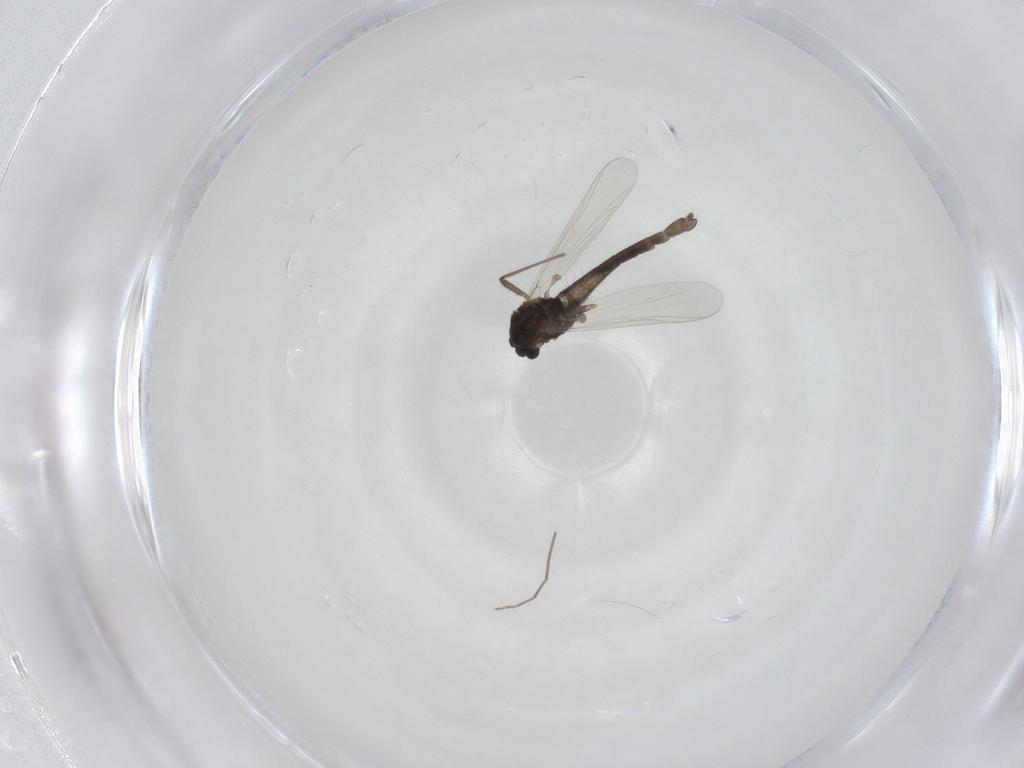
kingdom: Animalia
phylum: Arthropoda
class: Insecta
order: Diptera
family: Chironomidae
